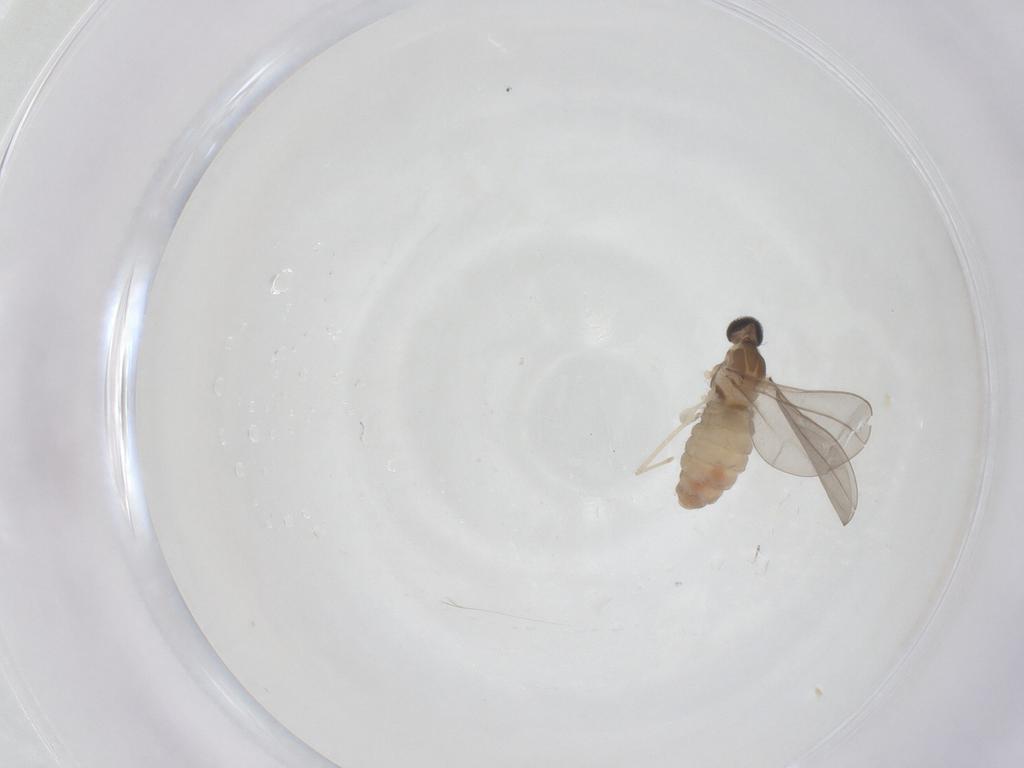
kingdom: Animalia
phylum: Arthropoda
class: Insecta
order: Diptera
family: Cecidomyiidae
